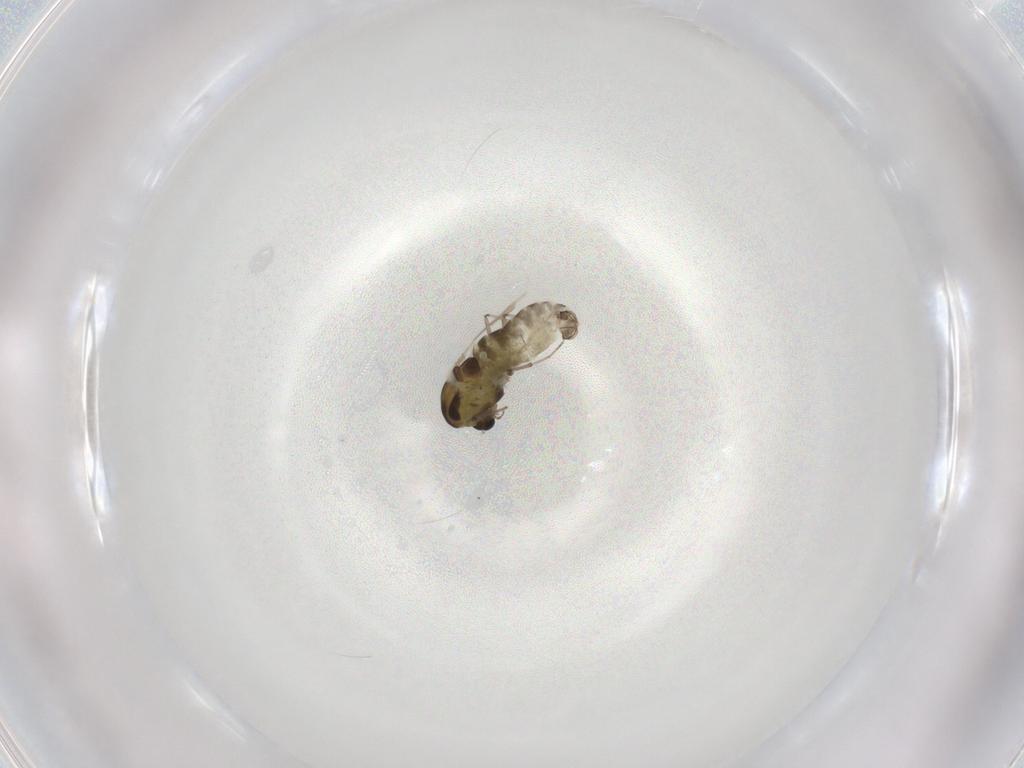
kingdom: Animalia
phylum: Arthropoda
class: Insecta
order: Diptera
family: Chironomidae
